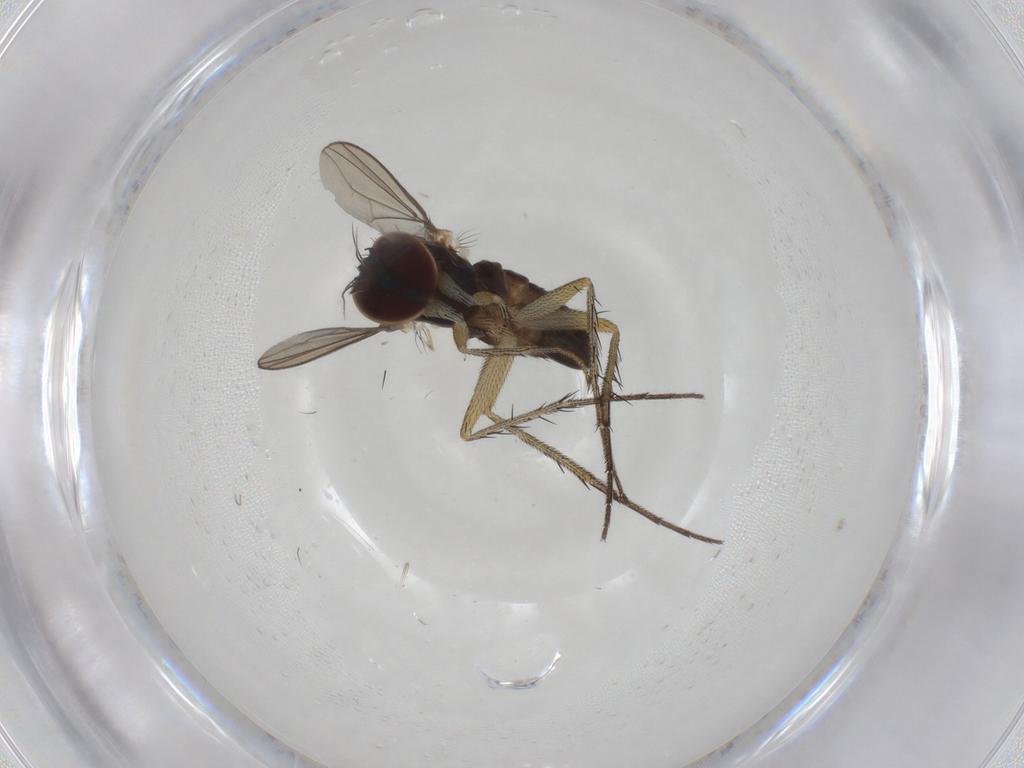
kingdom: Animalia
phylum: Arthropoda
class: Insecta
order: Diptera
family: Dolichopodidae
